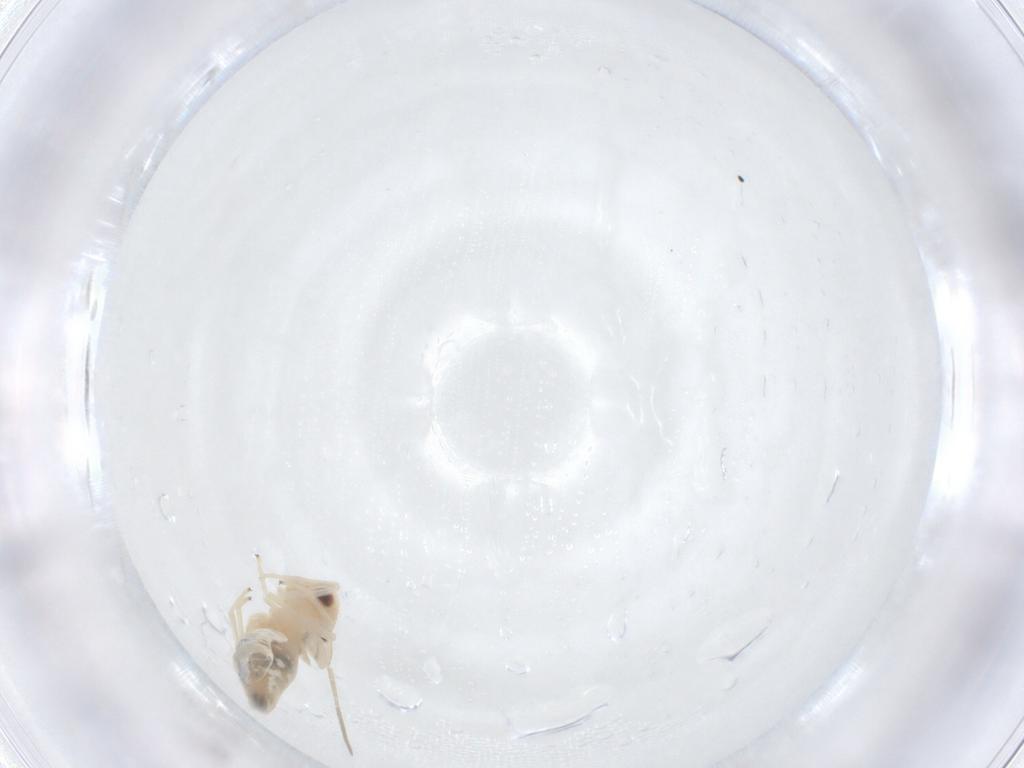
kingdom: Animalia
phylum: Arthropoda
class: Insecta
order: Psocodea
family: Caeciliusidae
